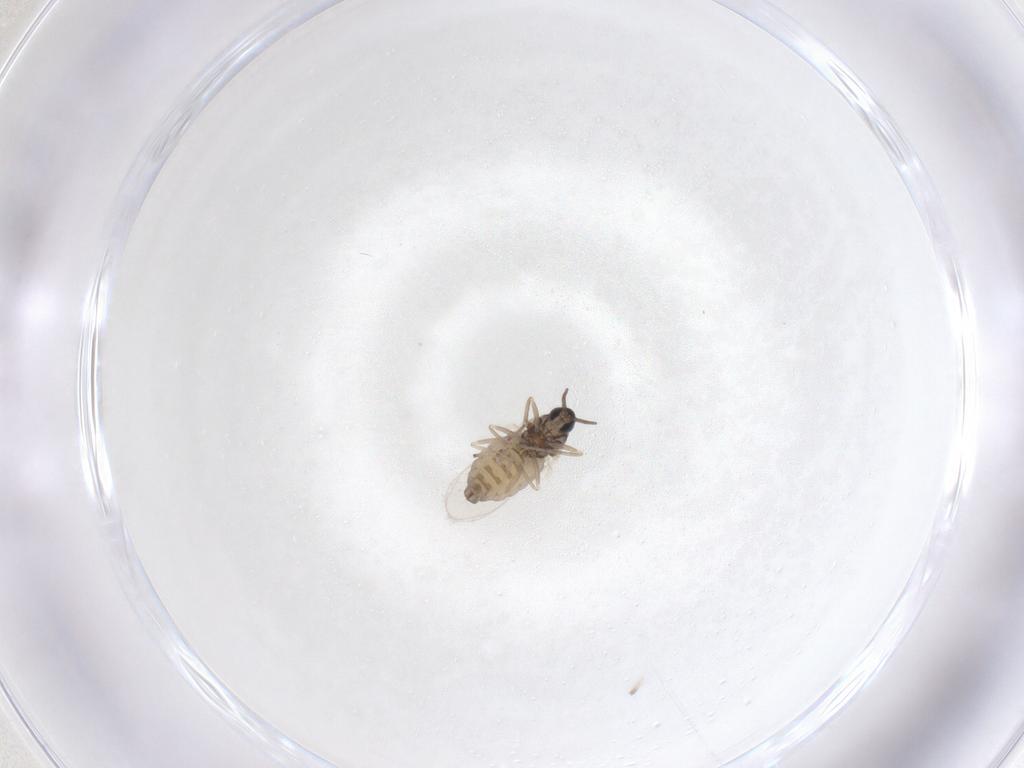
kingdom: Animalia
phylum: Arthropoda
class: Insecta
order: Diptera
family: Cecidomyiidae
